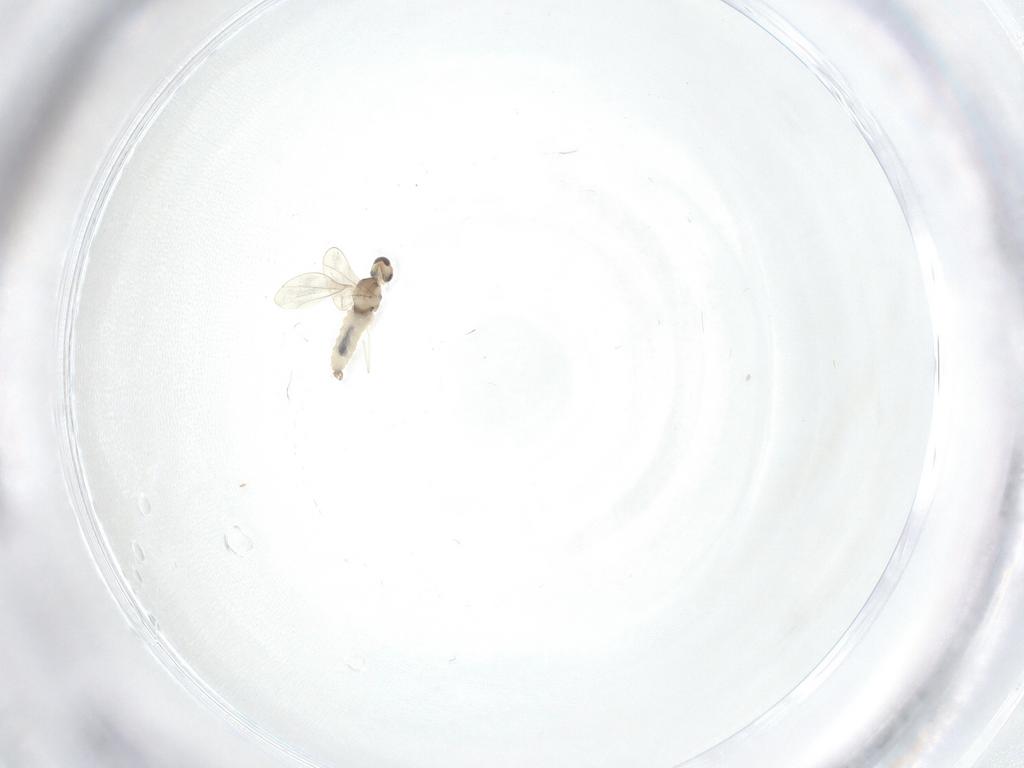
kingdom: Animalia
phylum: Arthropoda
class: Insecta
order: Diptera
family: Cecidomyiidae
